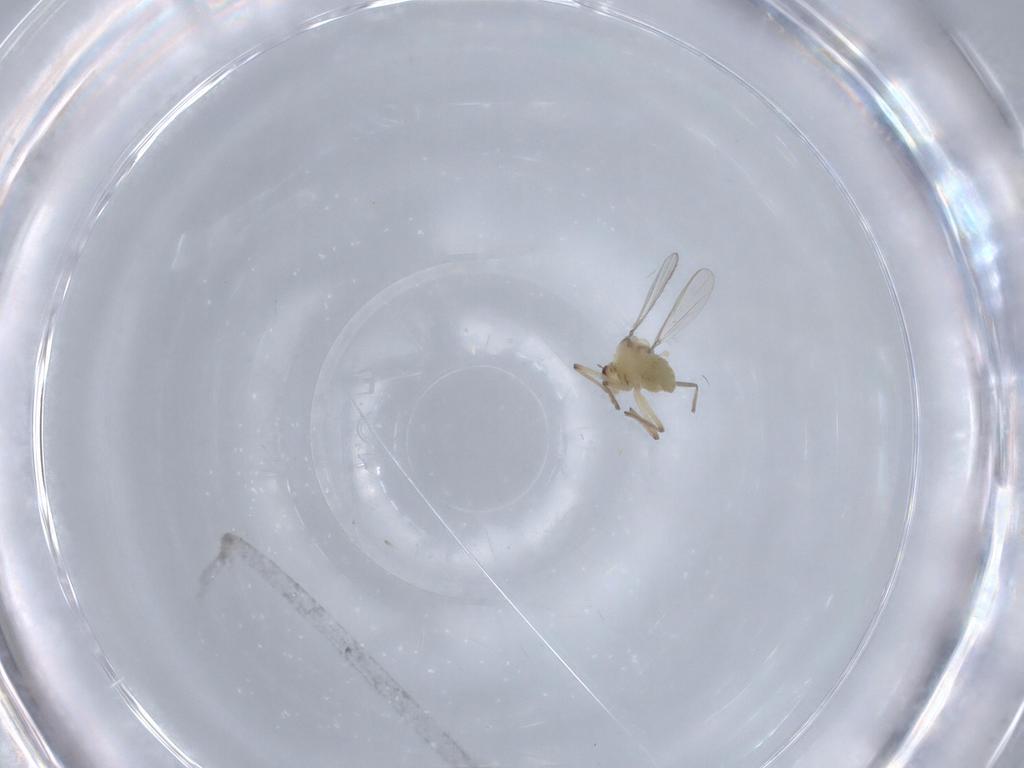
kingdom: Animalia
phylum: Arthropoda
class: Insecta
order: Diptera
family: Chironomidae
